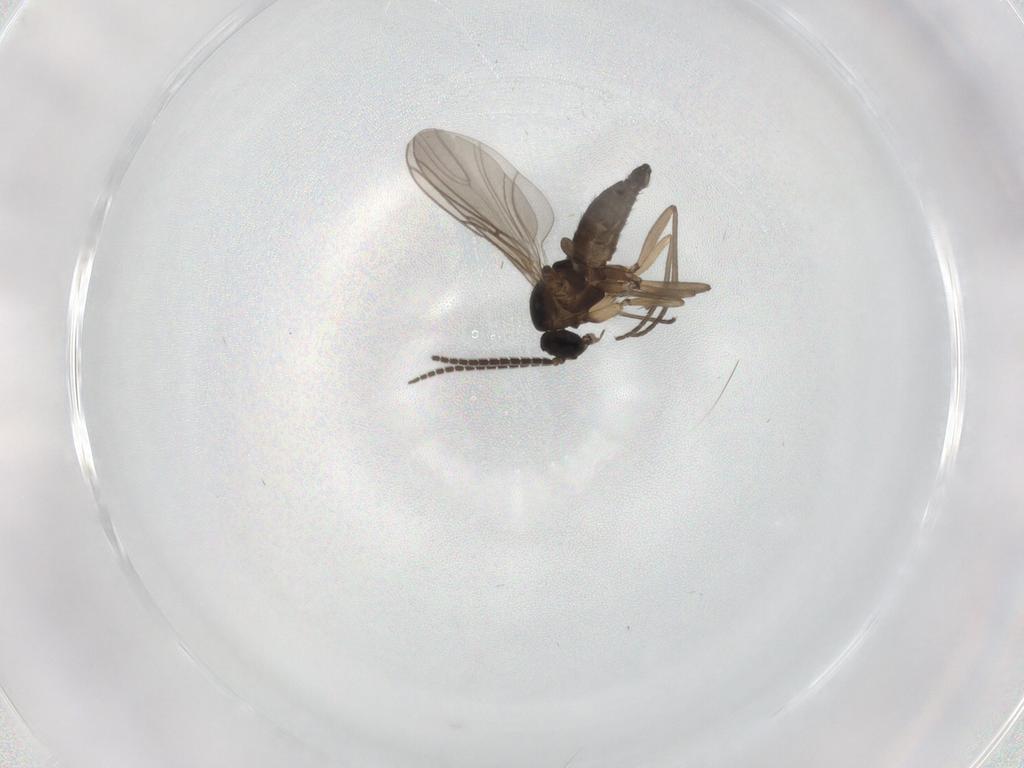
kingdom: Animalia
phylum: Arthropoda
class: Insecta
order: Diptera
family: Sciaridae
